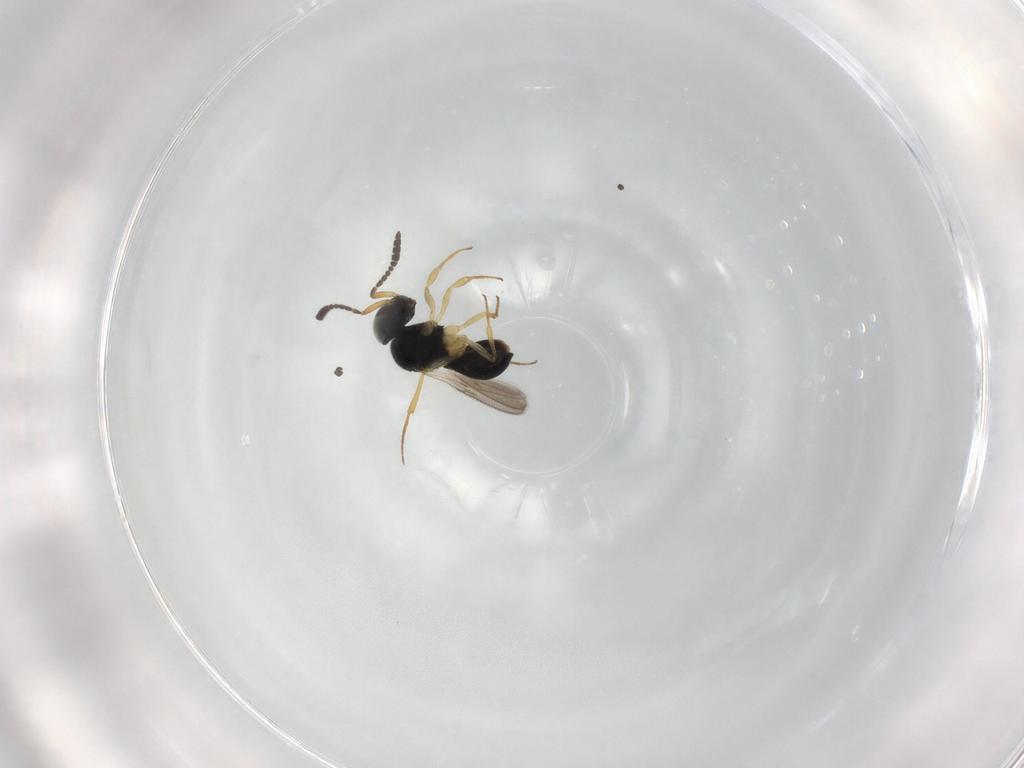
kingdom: Animalia
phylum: Arthropoda
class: Insecta
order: Hymenoptera
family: Scelionidae
